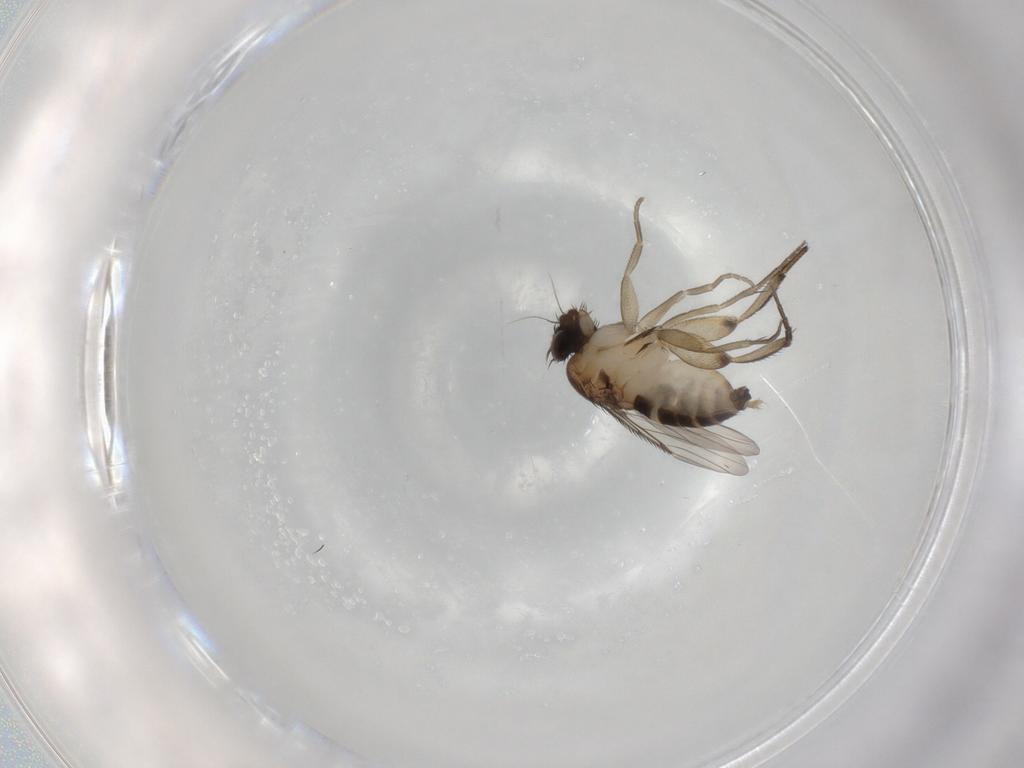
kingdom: Animalia
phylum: Arthropoda
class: Insecta
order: Diptera
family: Phoridae
